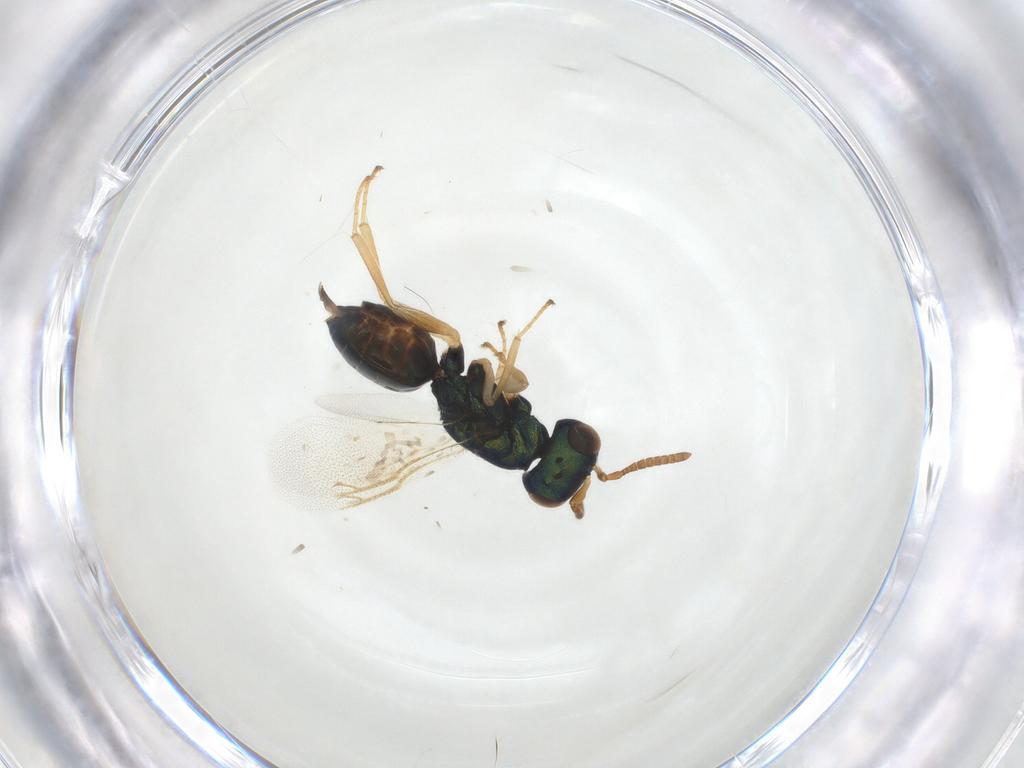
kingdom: Animalia
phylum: Arthropoda
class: Insecta
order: Hymenoptera
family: Pteromalidae
